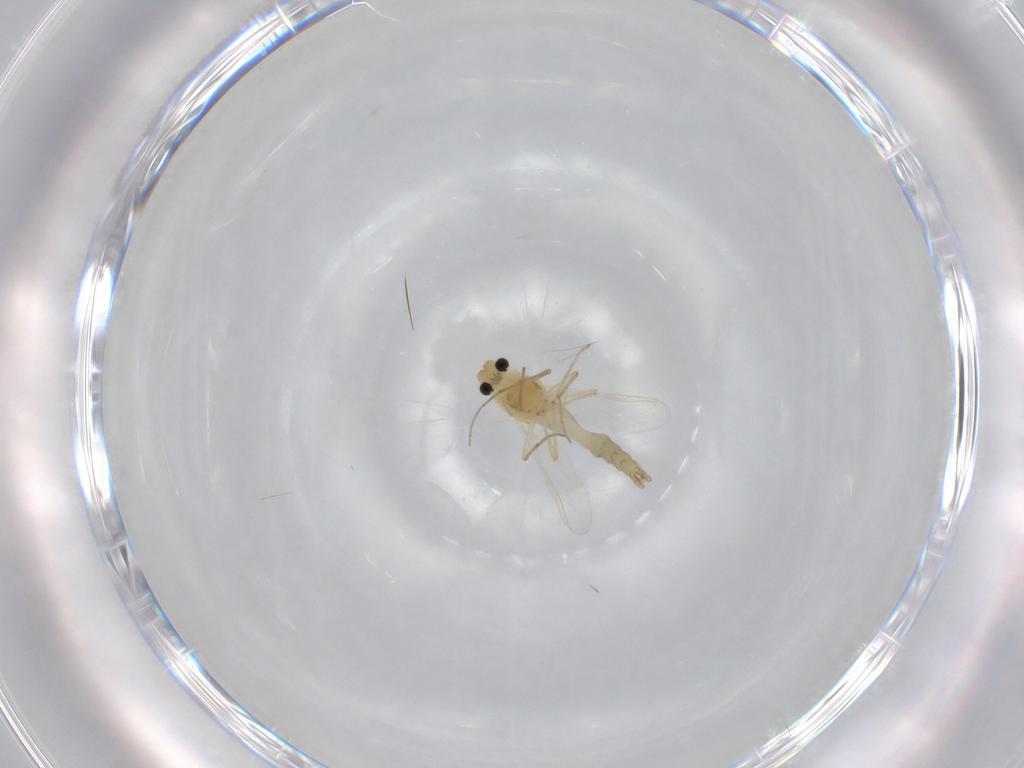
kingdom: Animalia
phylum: Arthropoda
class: Insecta
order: Diptera
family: Chironomidae
